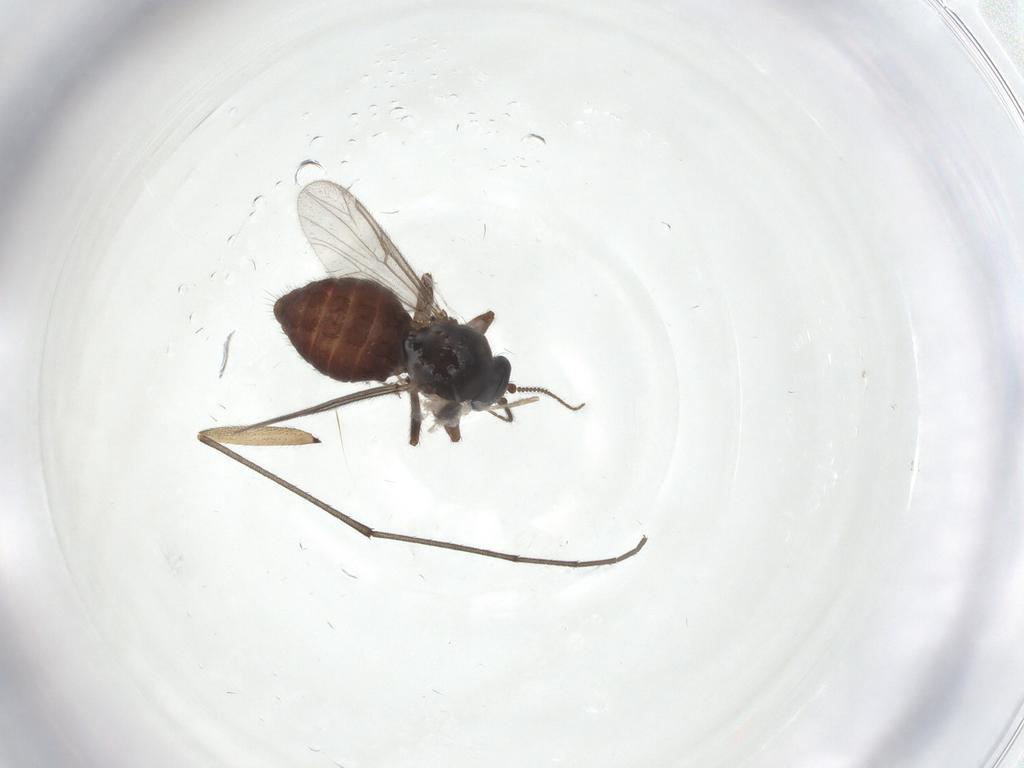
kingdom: Animalia
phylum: Arthropoda
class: Insecta
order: Diptera
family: Ceratopogonidae
